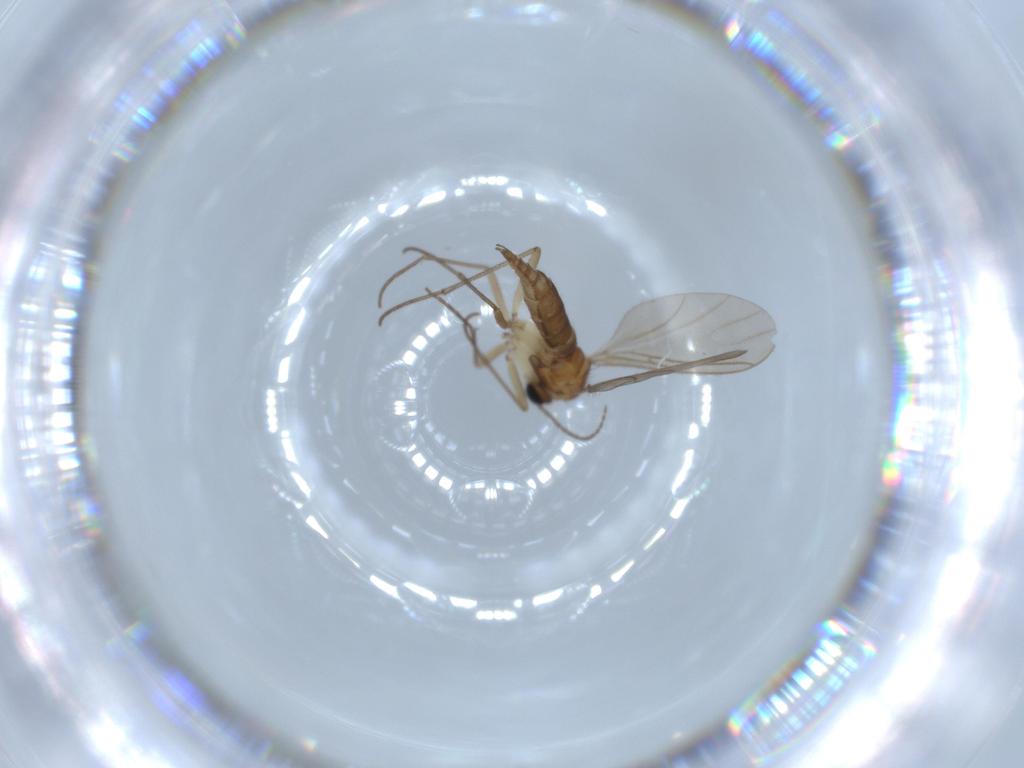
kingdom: Animalia
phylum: Arthropoda
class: Insecta
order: Diptera
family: Sciaridae
